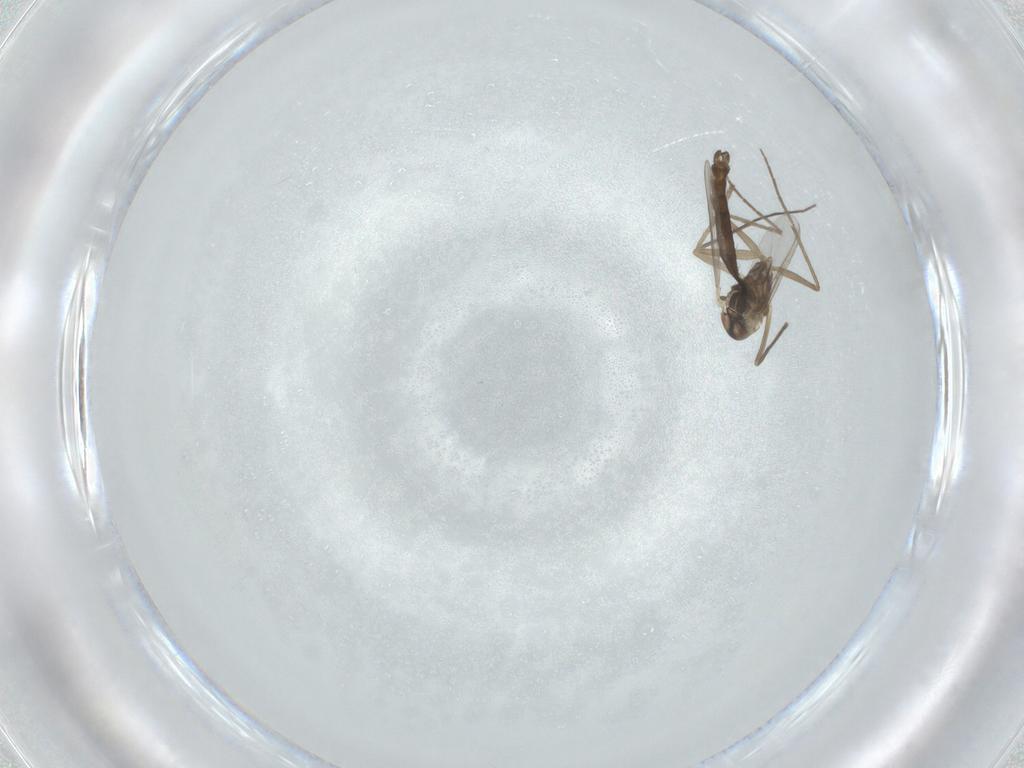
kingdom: Animalia
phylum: Arthropoda
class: Insecta
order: Diptera
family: Chironomidae
